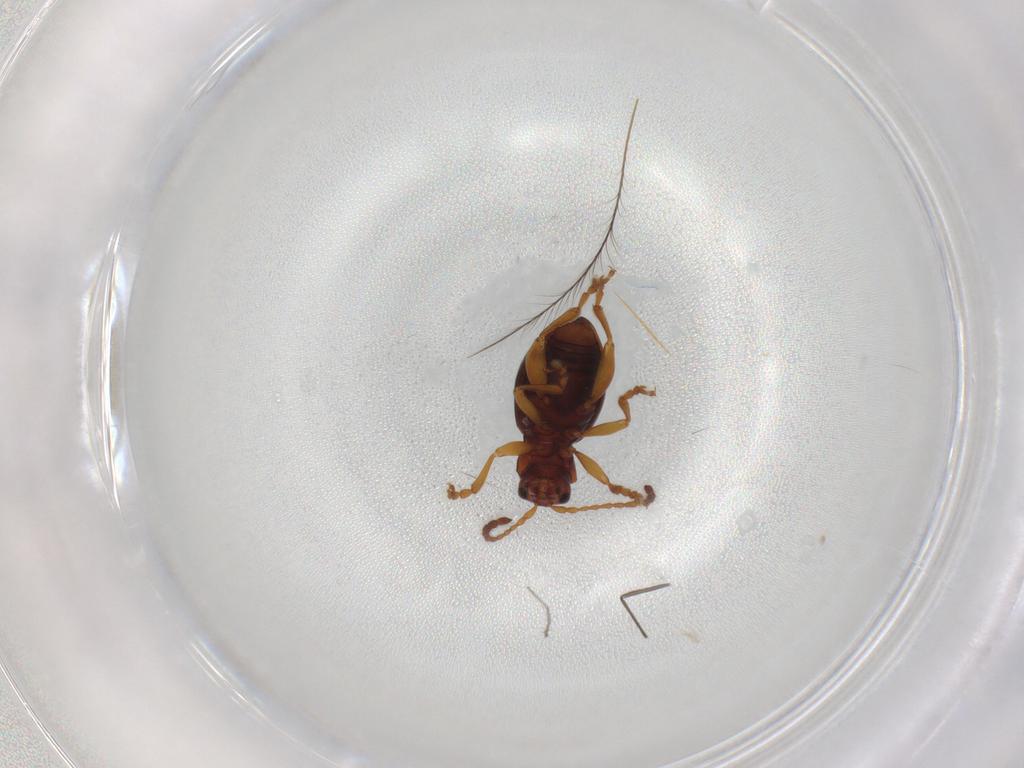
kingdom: Animalia
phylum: Arthropoda
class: Insecta
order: Coleoptera
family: Chrysomelidae
